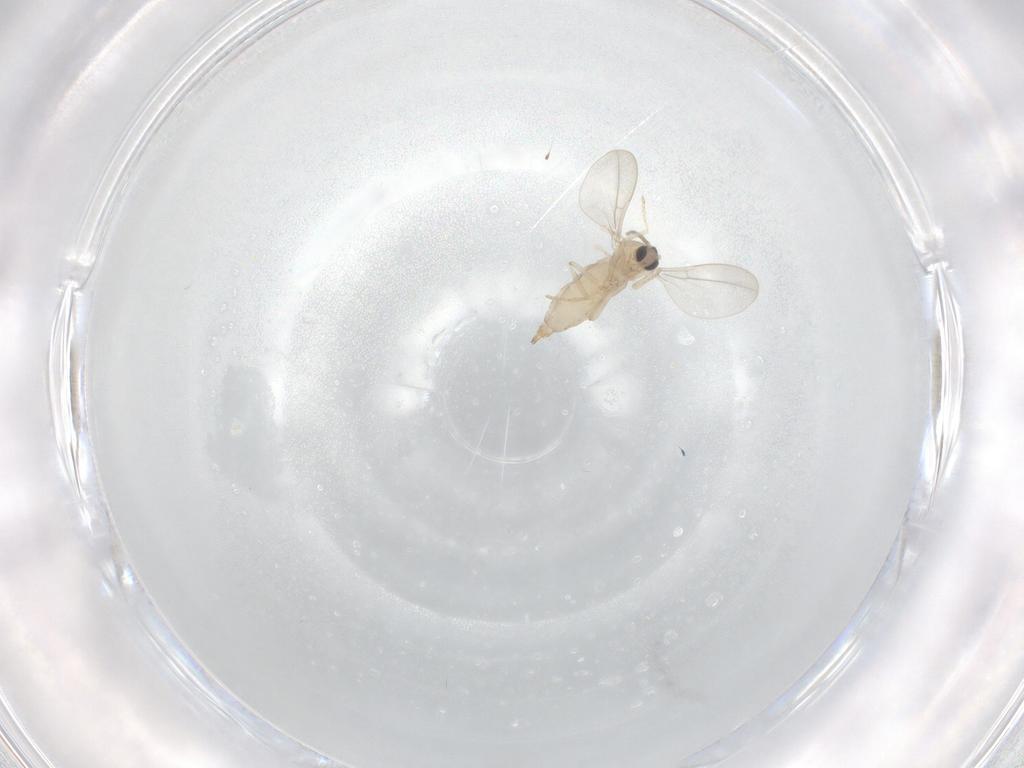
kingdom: Animalia
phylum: Arthropoda
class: Insecta
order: Diptera
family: Cecidomyiidae
